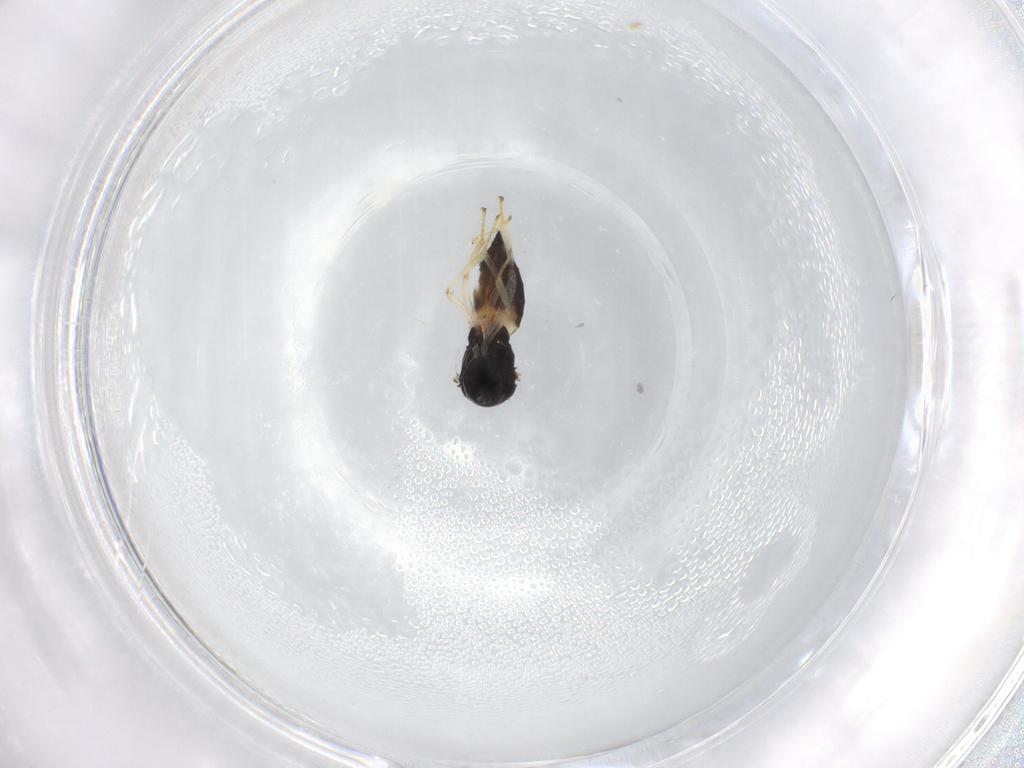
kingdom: Animalia
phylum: Arthropoda
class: Insecta
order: Hymenoptera
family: Pteromalidae
